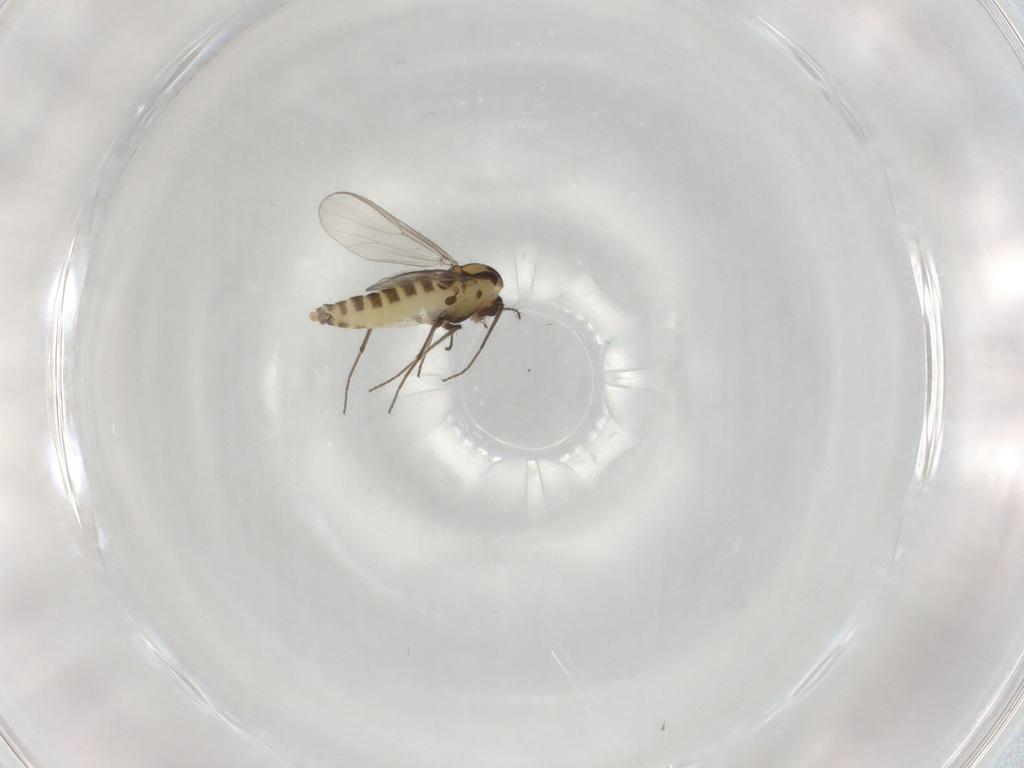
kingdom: Animalia
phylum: Arthropoda
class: Insecta
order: Diptera
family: Chironomidae
